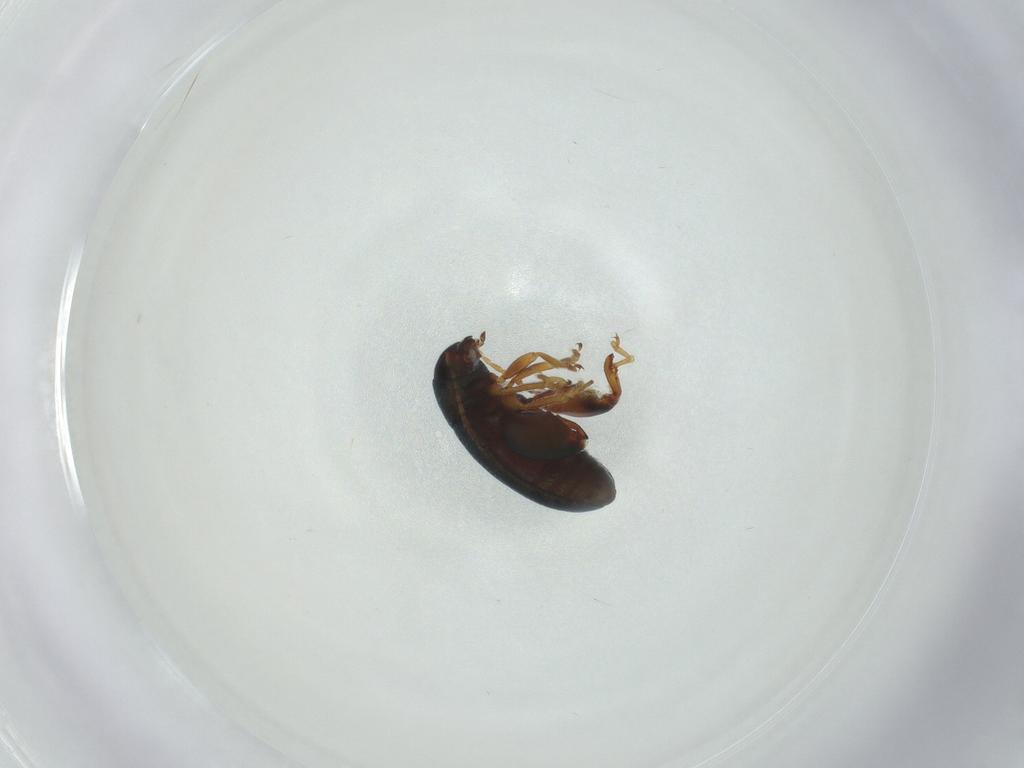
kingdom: Animalia
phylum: Arthropoda
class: Insecta
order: Coleoptera
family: Chrysomelidae
